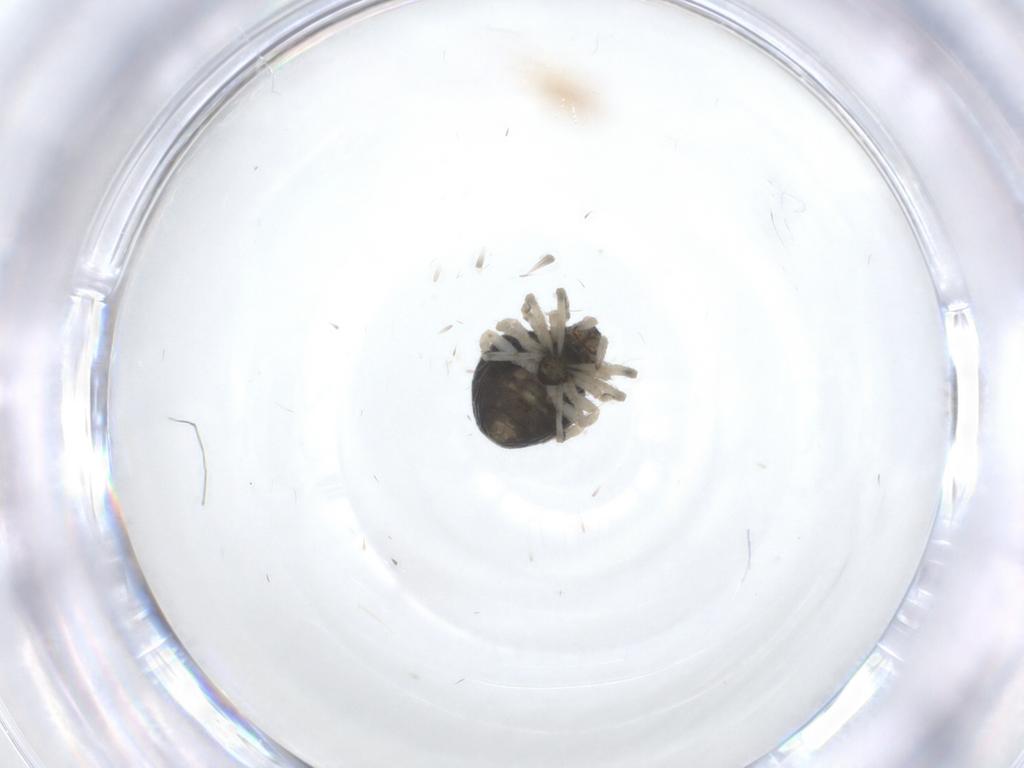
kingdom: Animalia
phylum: Arthropoda
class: Arachnida
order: Araneae
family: Theridiidae
